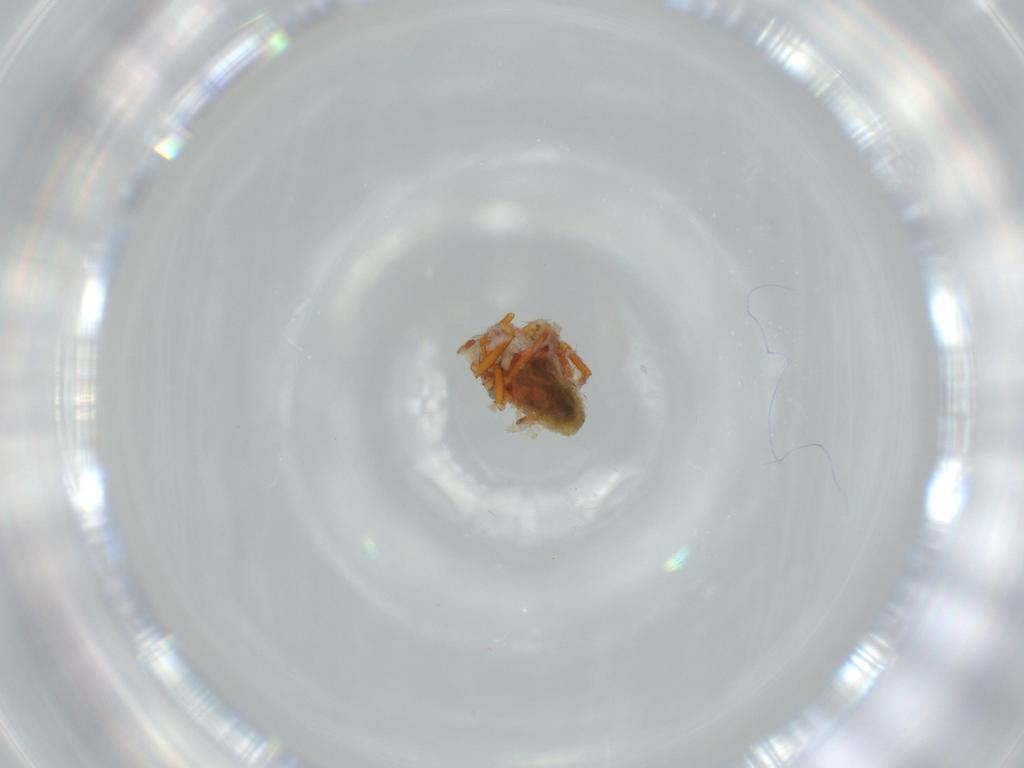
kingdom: Animalia
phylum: Arthropoda
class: Arachnida
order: Araneae
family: Theridiidae
